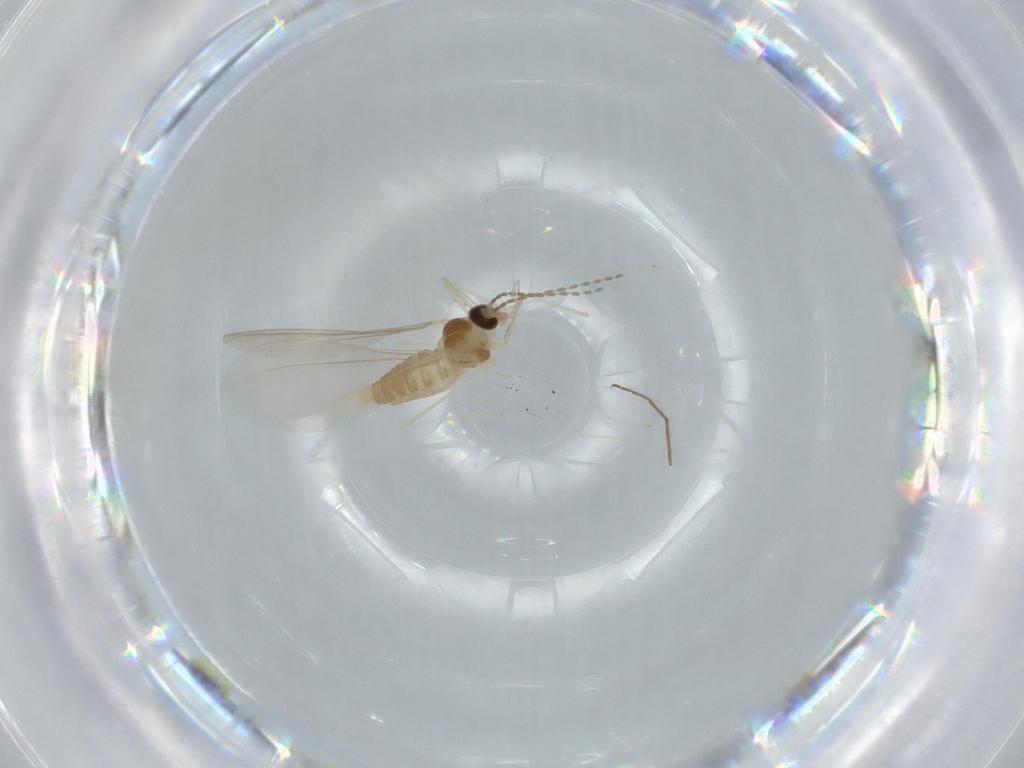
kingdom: Animalia
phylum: Arthropoda
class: Insecta
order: Diptera
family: Cecidomyiidae
